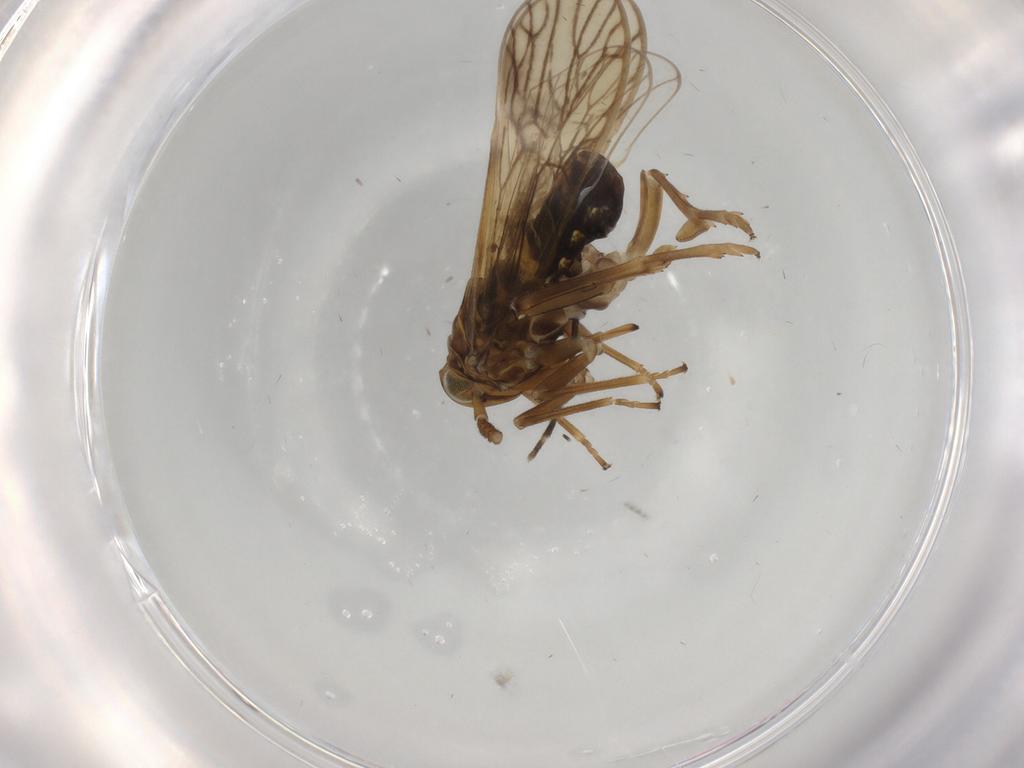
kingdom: Animalia
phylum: Arthropoda
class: Insecta
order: Hemiptera
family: Delphacidae
